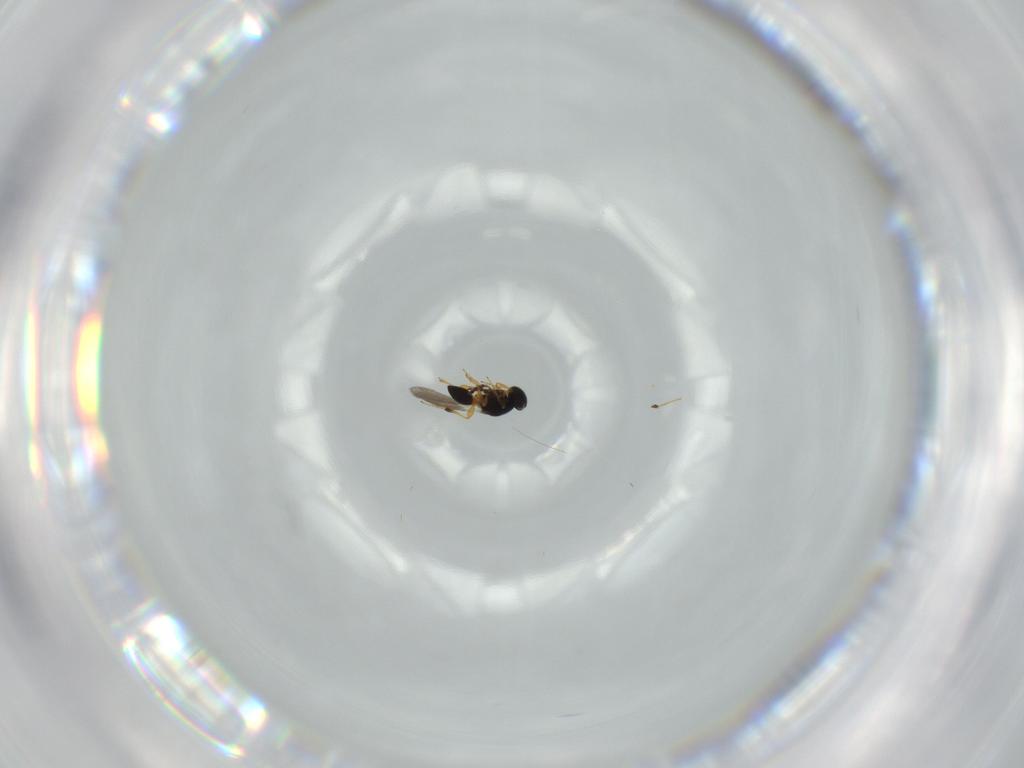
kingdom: Animalia
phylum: Arthropoda
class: Insecta
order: Hymenoptera
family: Platygastridae
